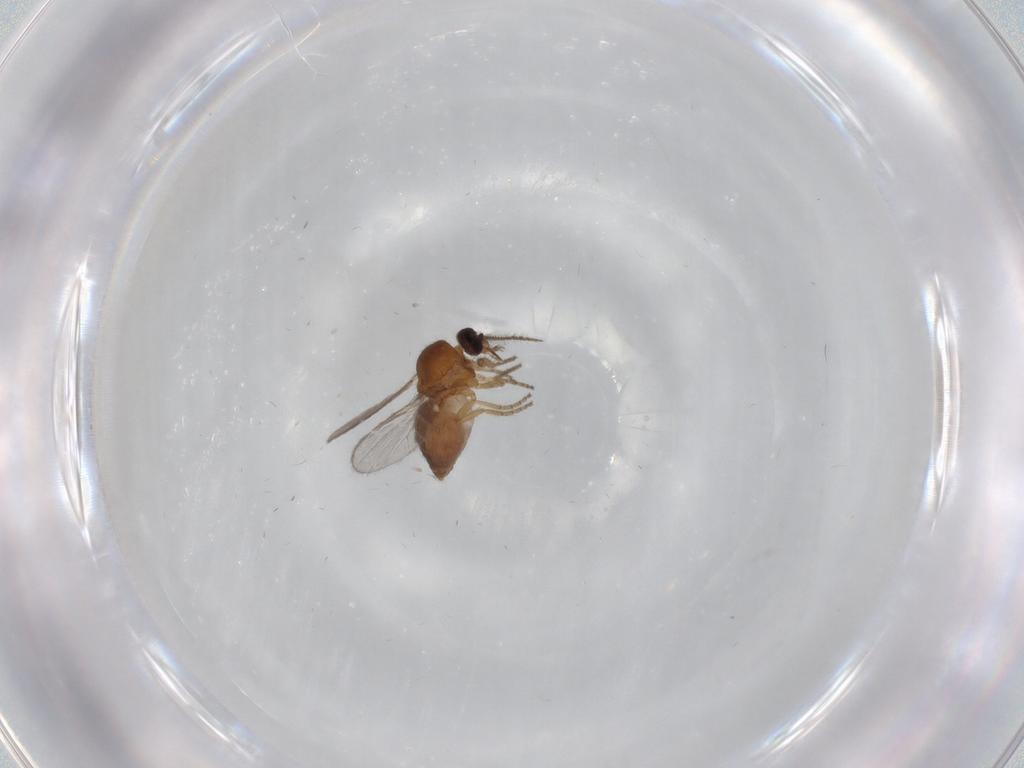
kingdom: Animalia
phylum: Arthropoda
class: Insecta
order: Diptera
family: Ceratopogonidae
